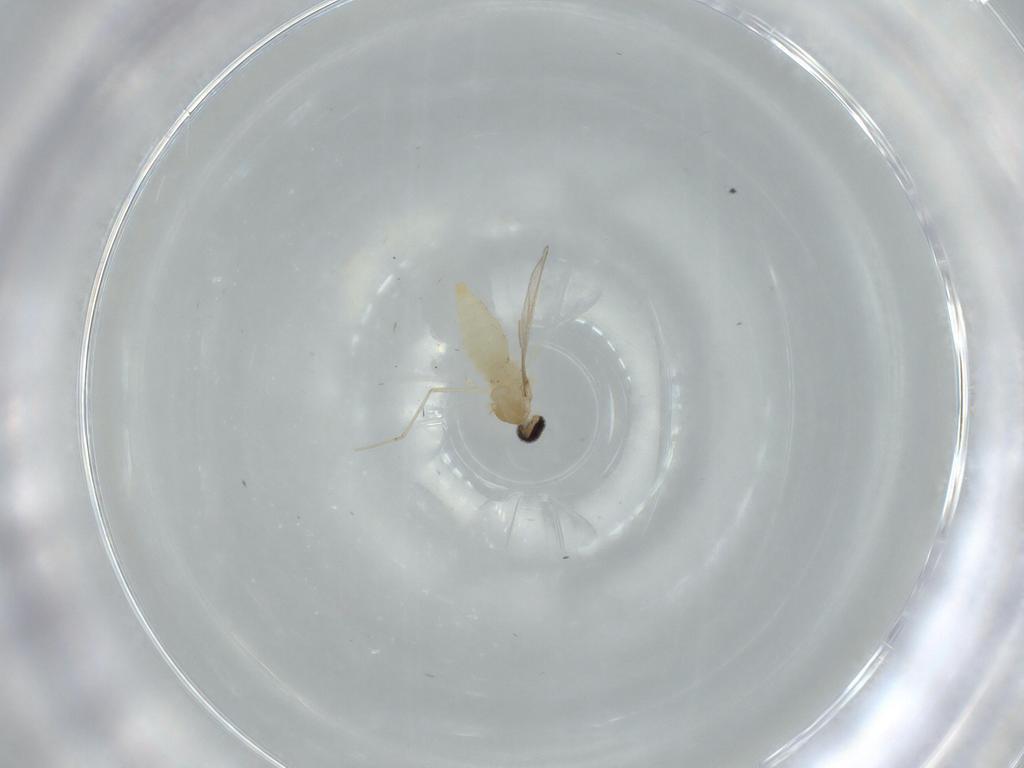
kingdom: Animalia
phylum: Arthropoda
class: Insecta
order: Diptera
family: Cecidomyiidae
